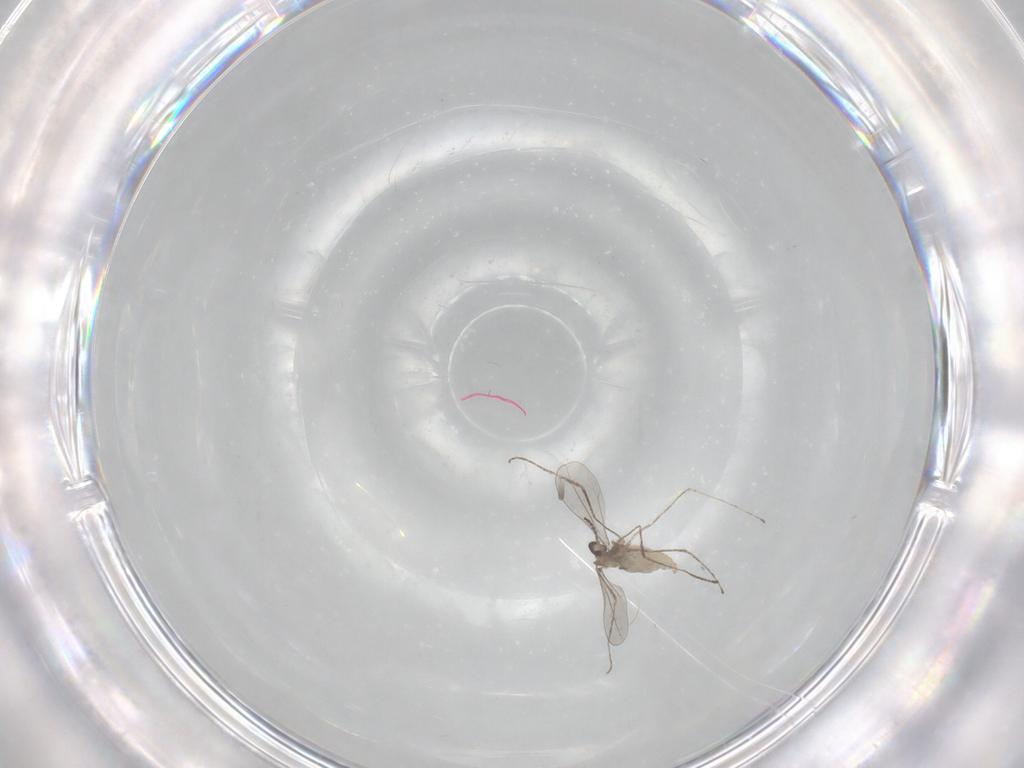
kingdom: Animalia
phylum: Arthropoda
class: Insecta
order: Diptera
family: Cecidomyiidae
